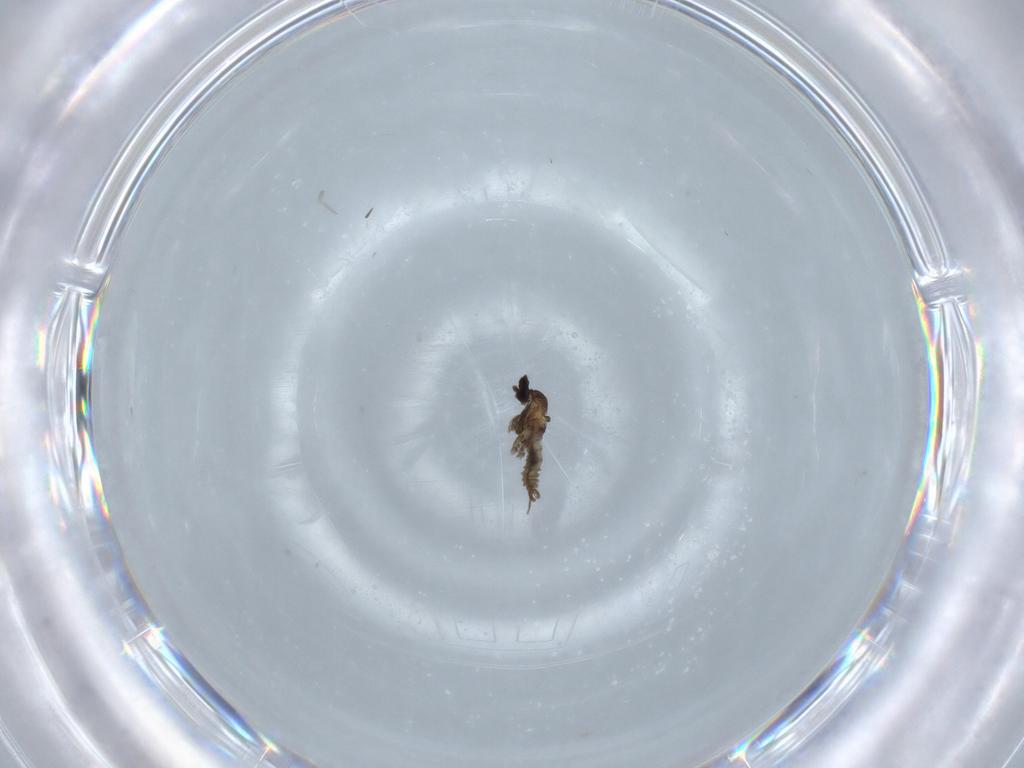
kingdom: Animalia
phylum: Arthropoda
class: Insecta
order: Diptera
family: Cecidomyiidae
